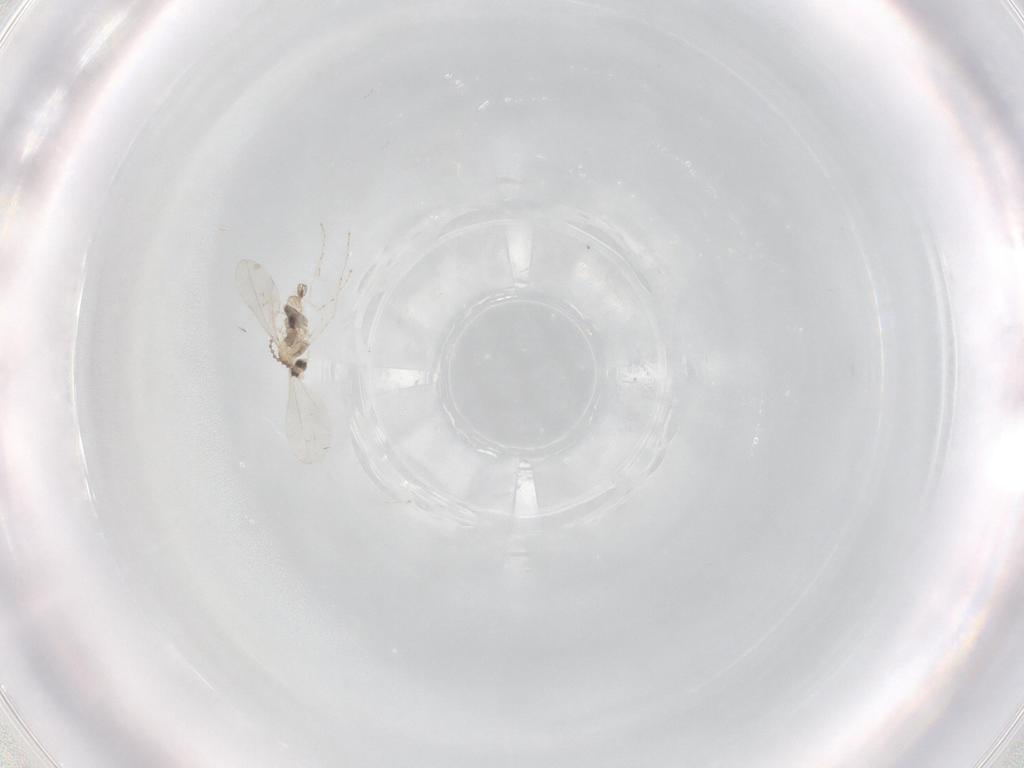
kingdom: Animalia
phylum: Arthropoda
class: Insecta
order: Diptera
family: Cecidomyiidae
